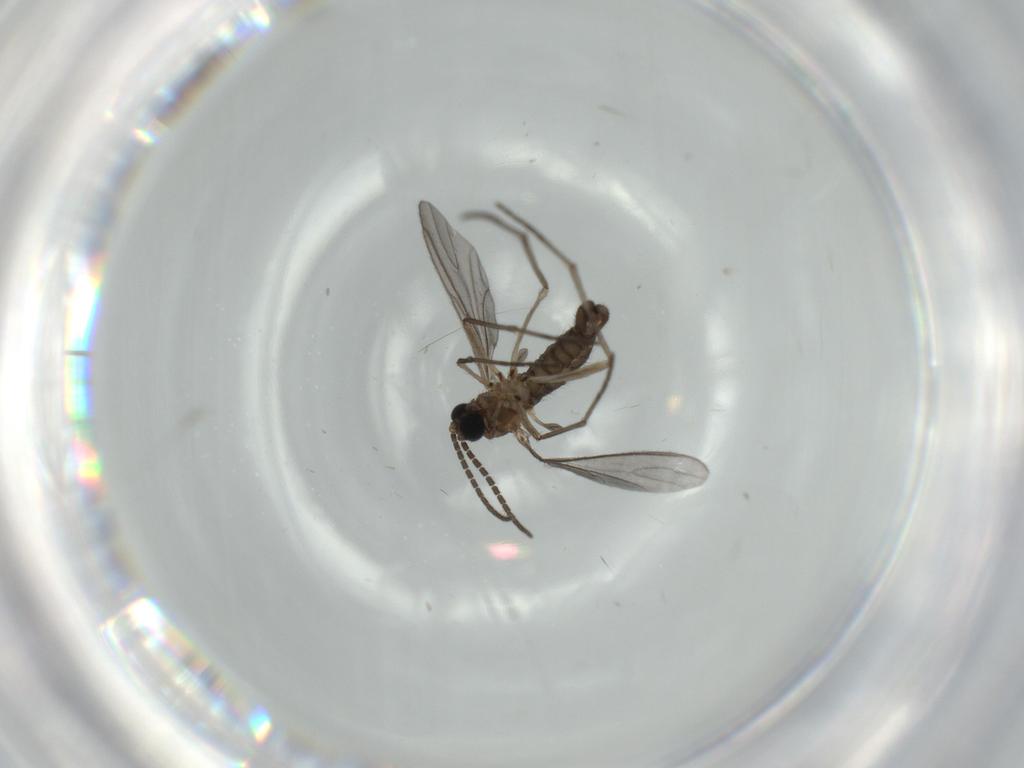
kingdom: Animalia
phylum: Arthropoda
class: Insecta
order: Diptera
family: Sciaridae
